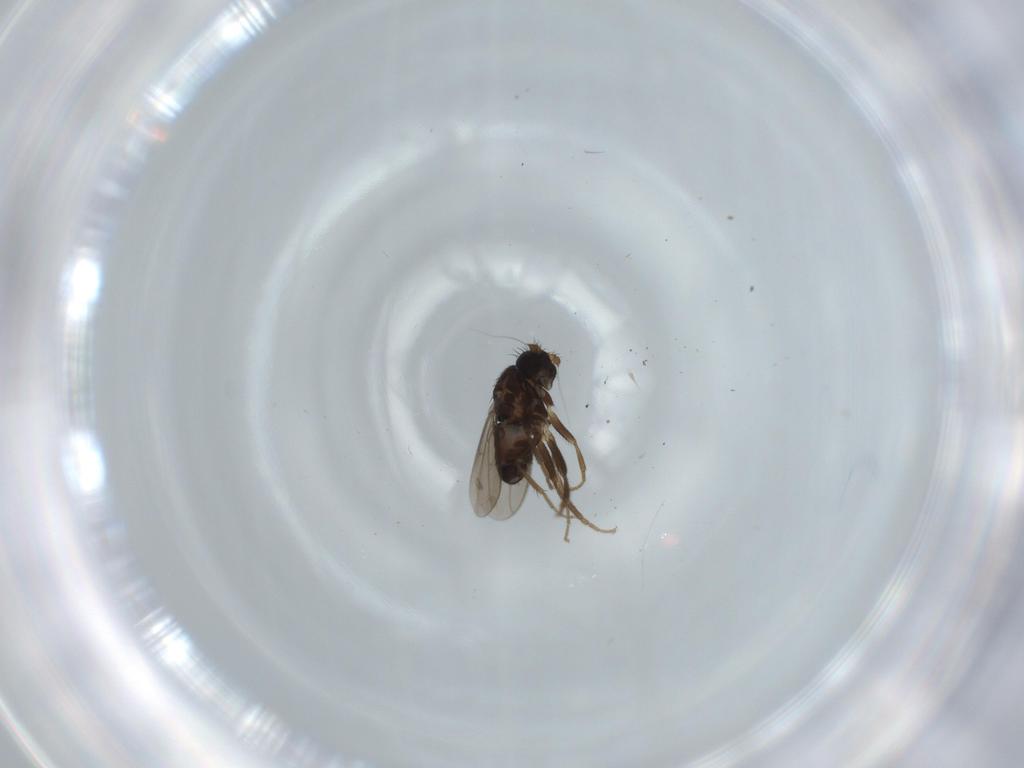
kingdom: Animalia
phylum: Arthropoda
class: Insecta
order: Diptera
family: Sphaeroceridae
